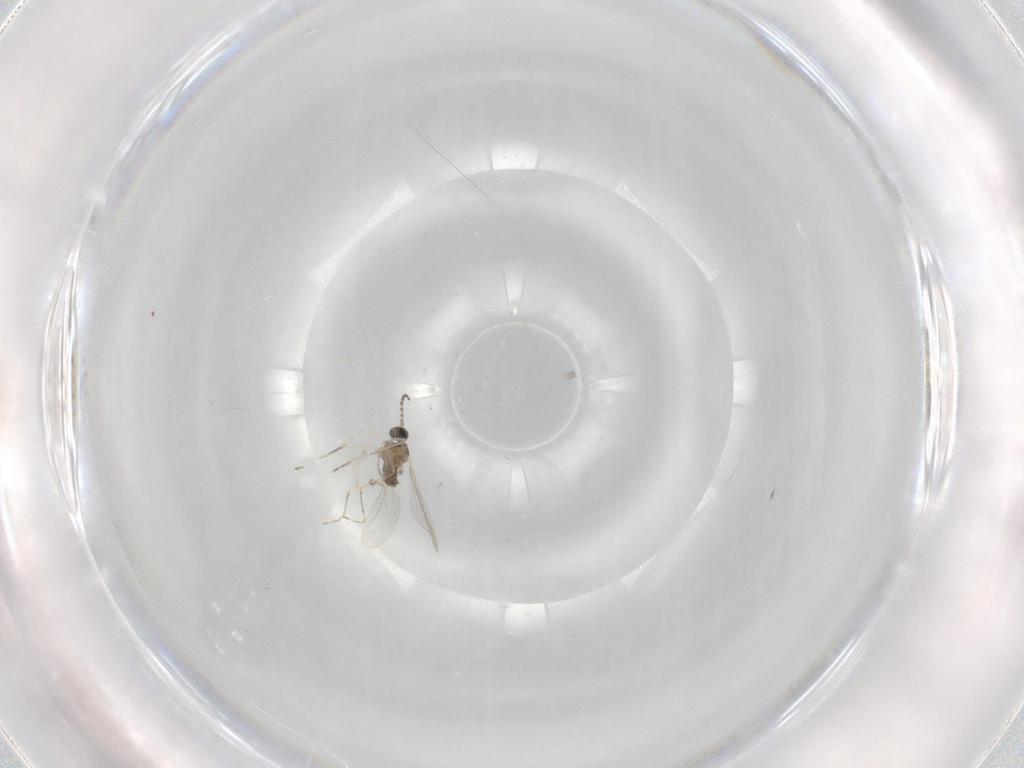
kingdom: Animalia
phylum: Arthropoda
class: Insecta
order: Diptera
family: Cecidomyiidae
